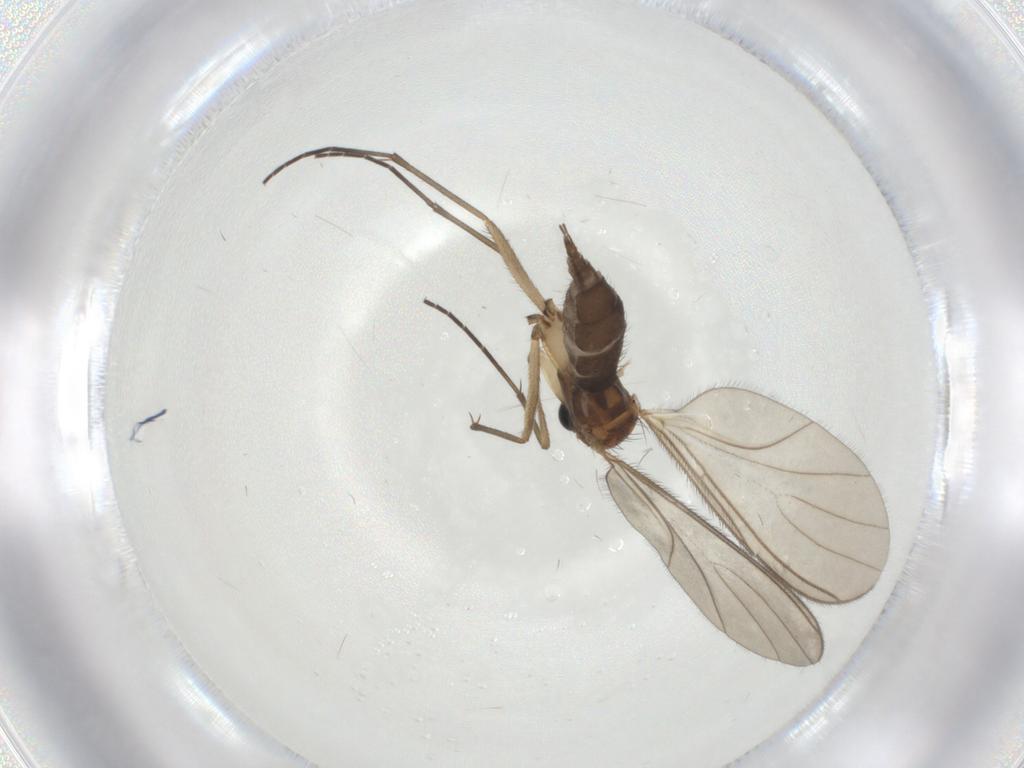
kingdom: Animalia
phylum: Arthropoda
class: Insecta
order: Diptera
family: Sciaridae
